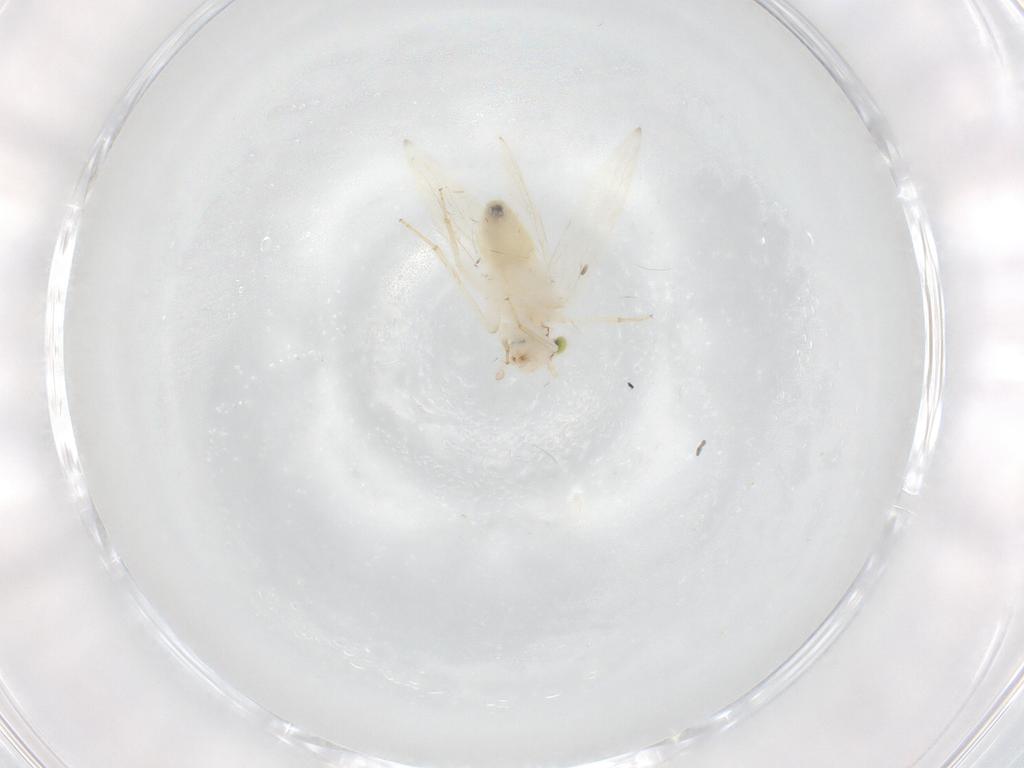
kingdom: Animalia
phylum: Arthropoda
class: Insecta
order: Psocodea
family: Lepidopsocidae
